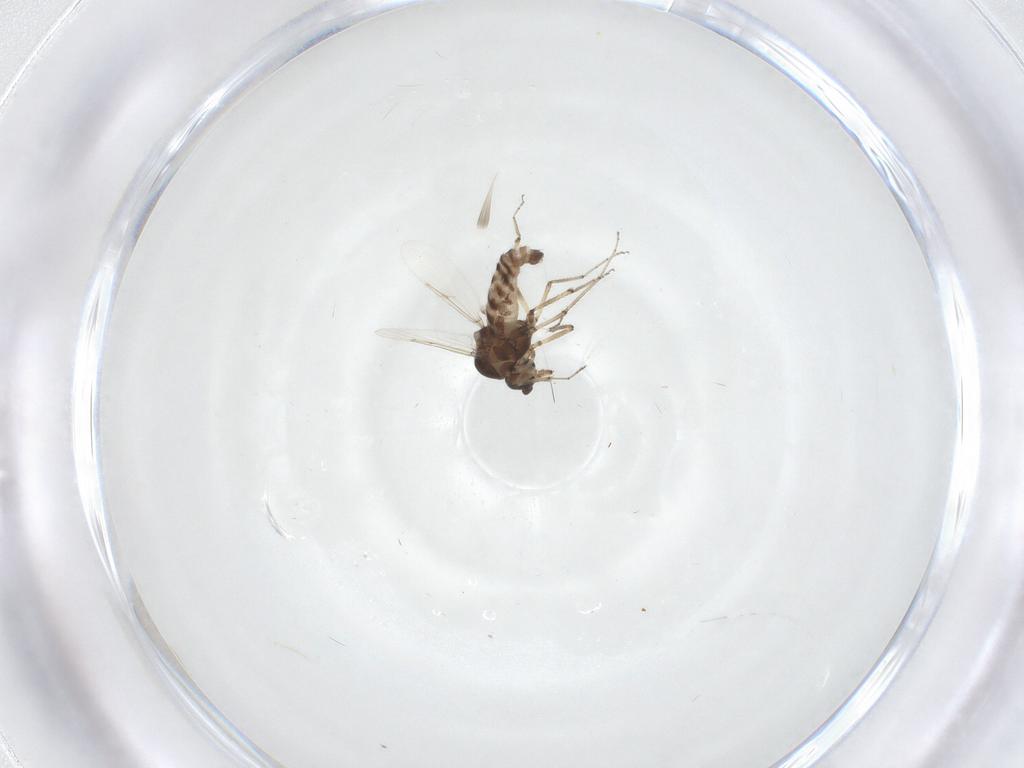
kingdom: Animalia
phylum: Arthropoda
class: Insecta
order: Diptera
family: Ceratopogonidae
